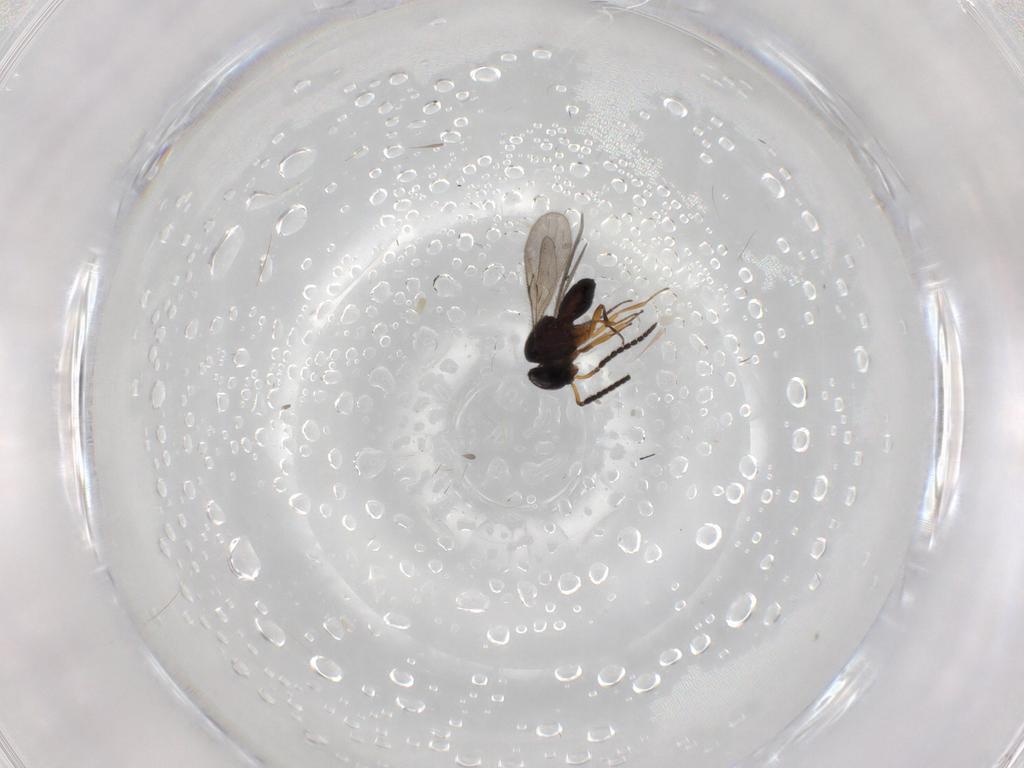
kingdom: Animalia
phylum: Arthropoda
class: Insecta
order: Hymenoptera
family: Scelionidae
